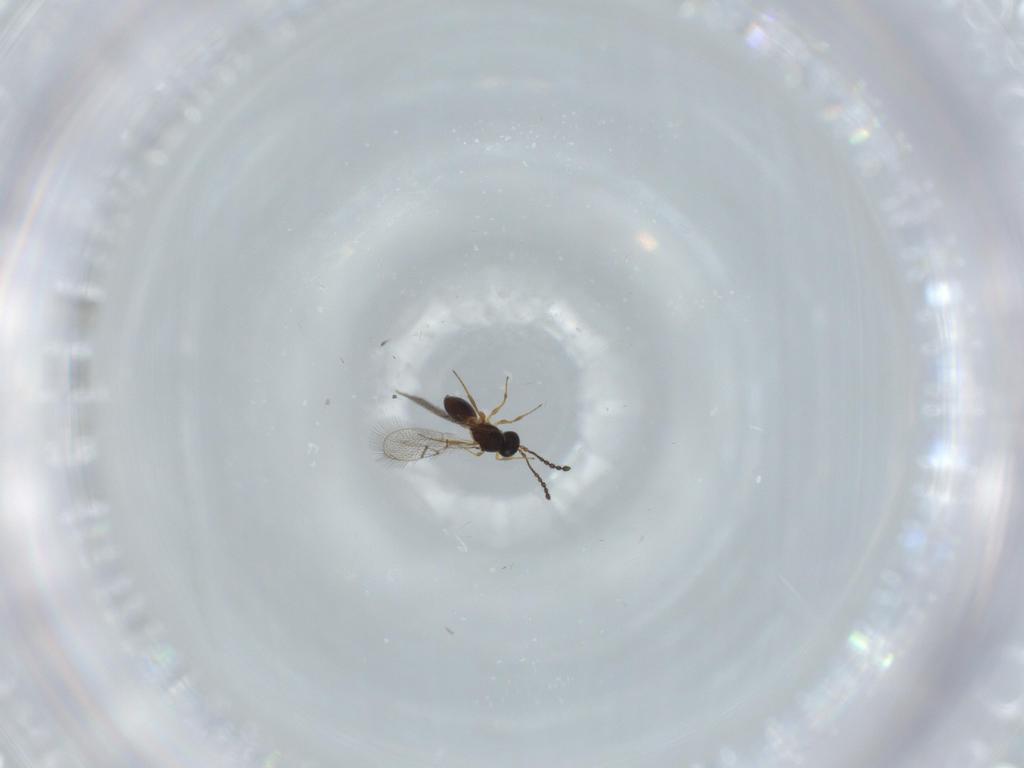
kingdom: Animalia
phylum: Arthropoda
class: Insecta
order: Hymenoptera
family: Figitidae
